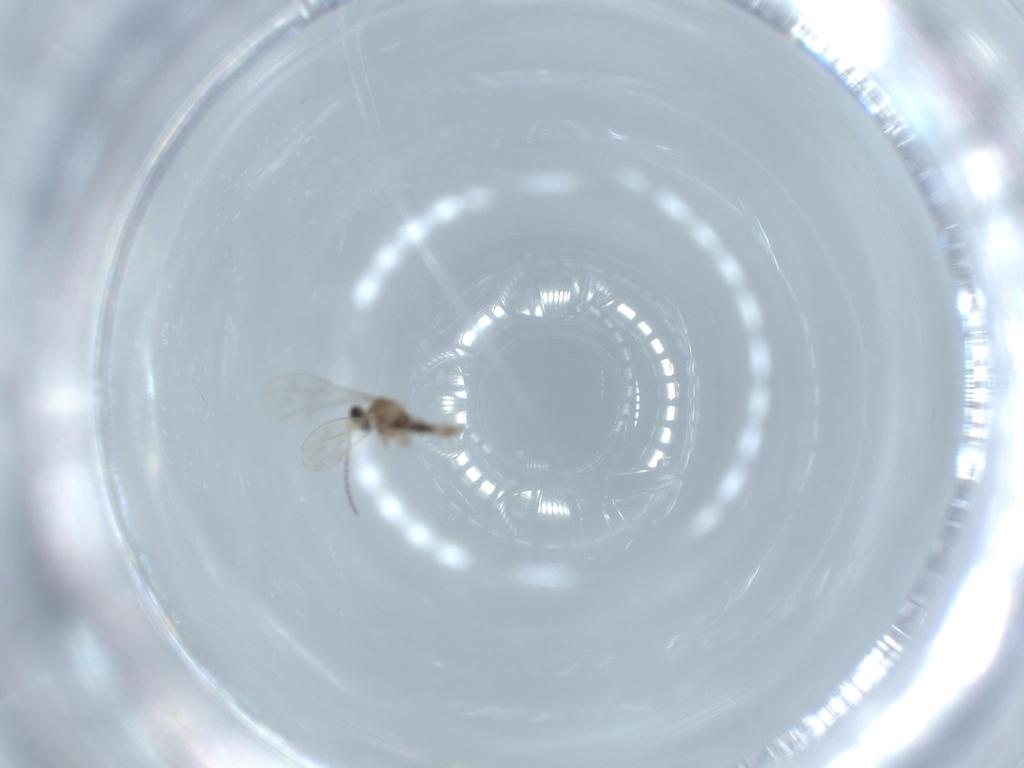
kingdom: Animalia
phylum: Arthropoda
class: Insecta
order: Diptera
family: Cecidomyiidae
